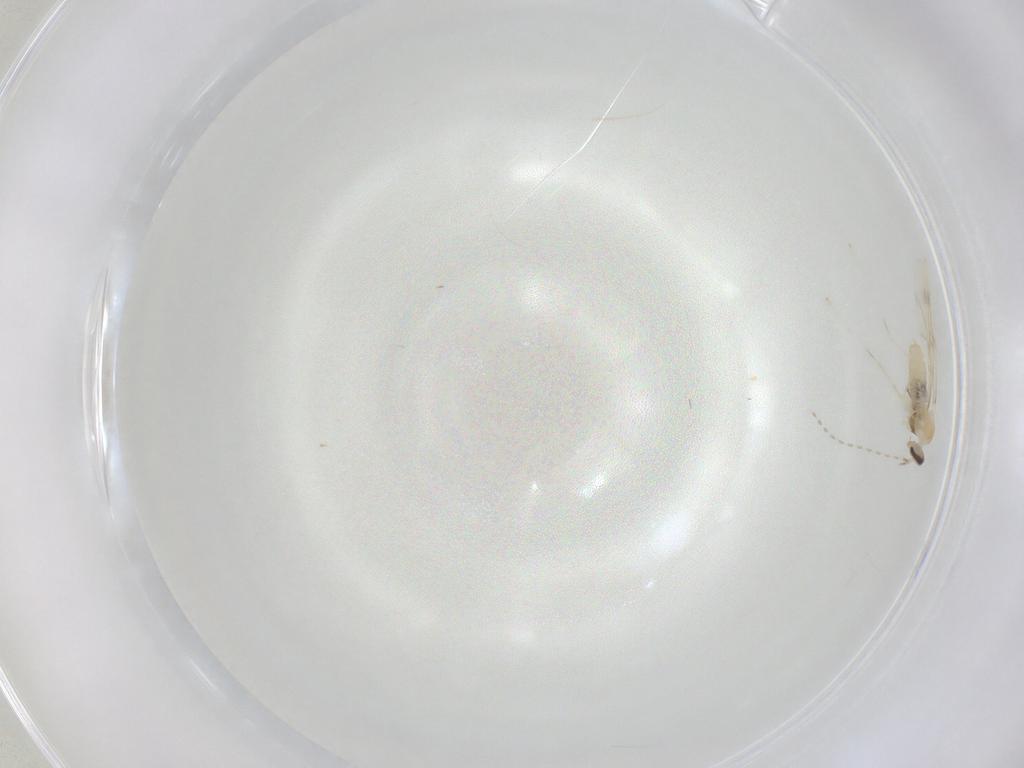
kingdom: Animalia
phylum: Arthropoda
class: Insecta
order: Diptera
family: Cecidomyiidae
